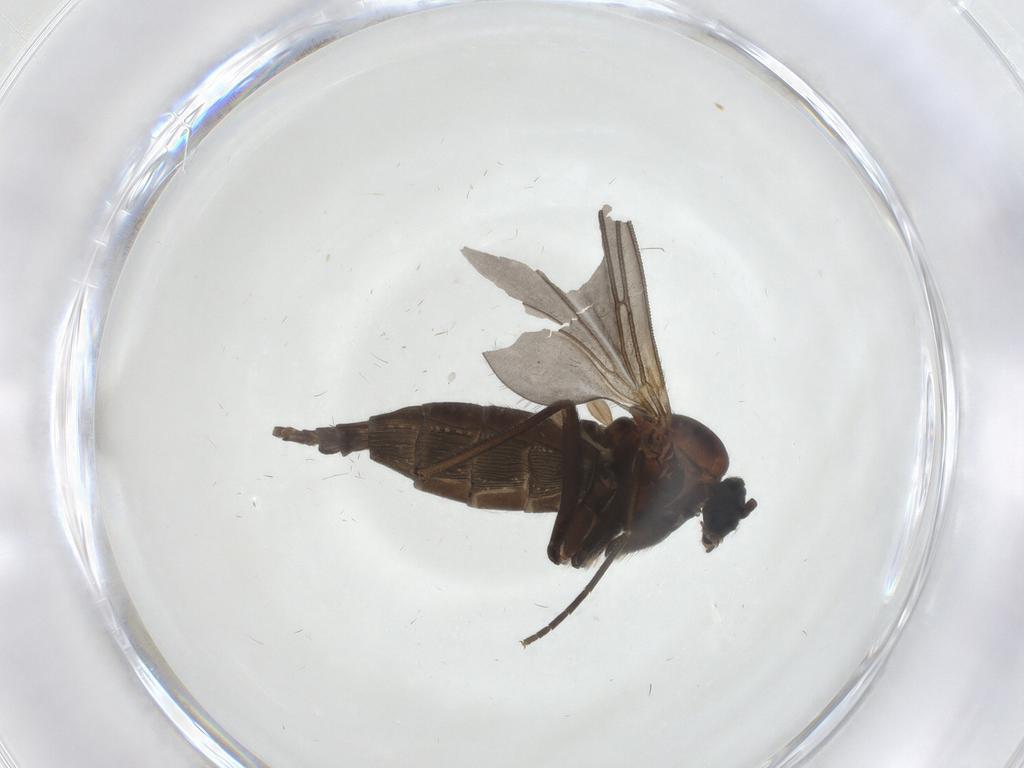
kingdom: Animalia
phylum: Arthropoda
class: Insecta
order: Diptera
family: Sciaridae
